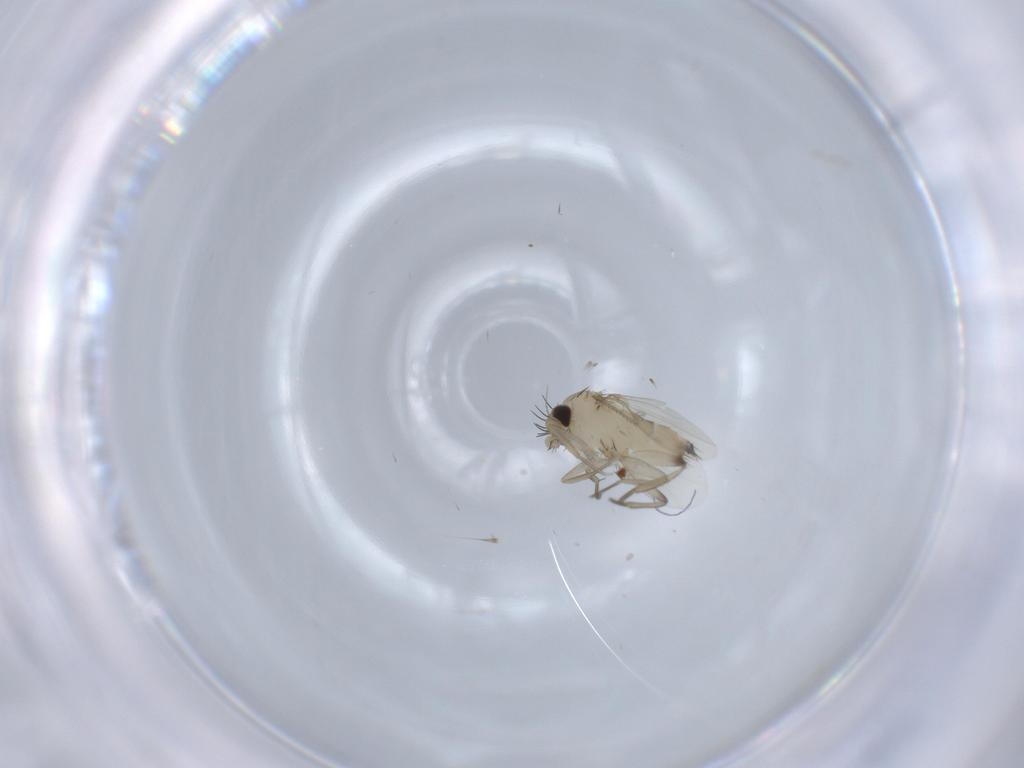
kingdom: Animalia
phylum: Arthropoda
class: Insecta
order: Diptera
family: Phoridae
